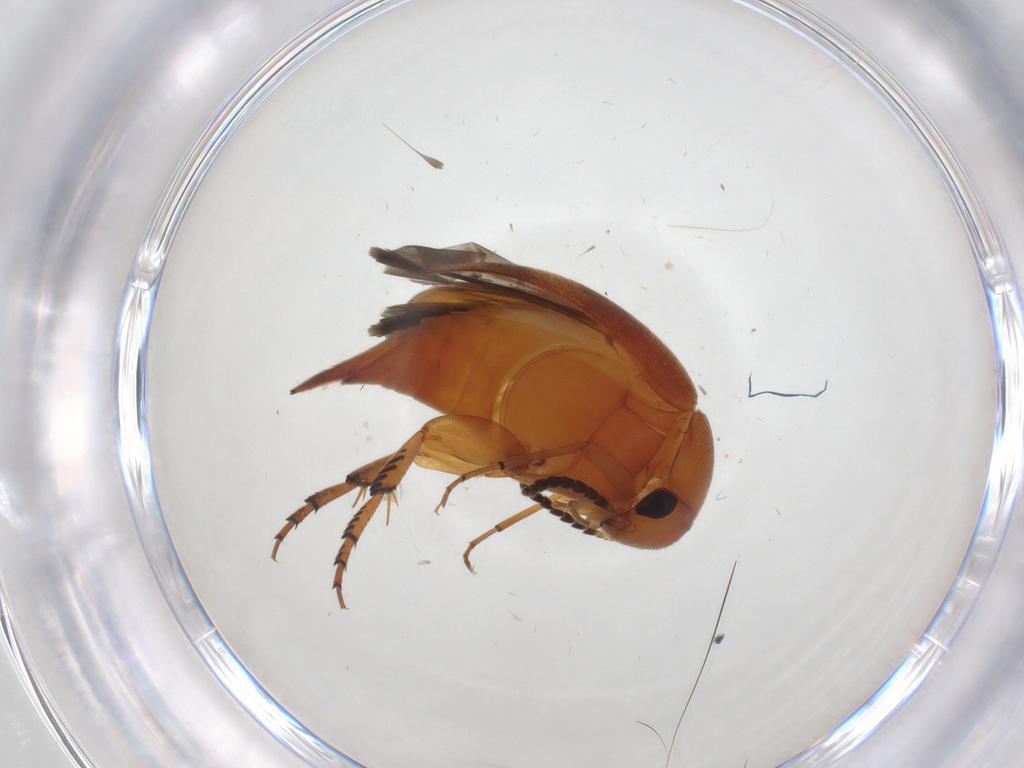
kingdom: Animalia
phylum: Arthropoda
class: Insecta
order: Coleoptera
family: Mordellidae
